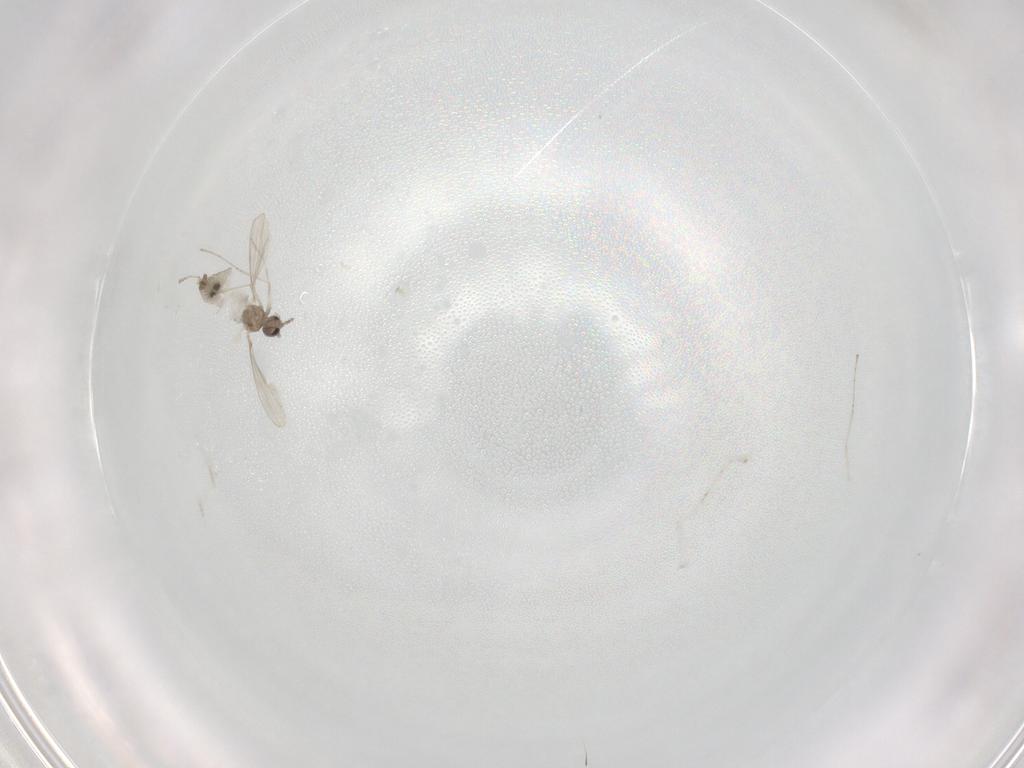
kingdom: Animalia
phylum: Arthropoda
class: Insecta
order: Diptera
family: Cecidomyiidae
